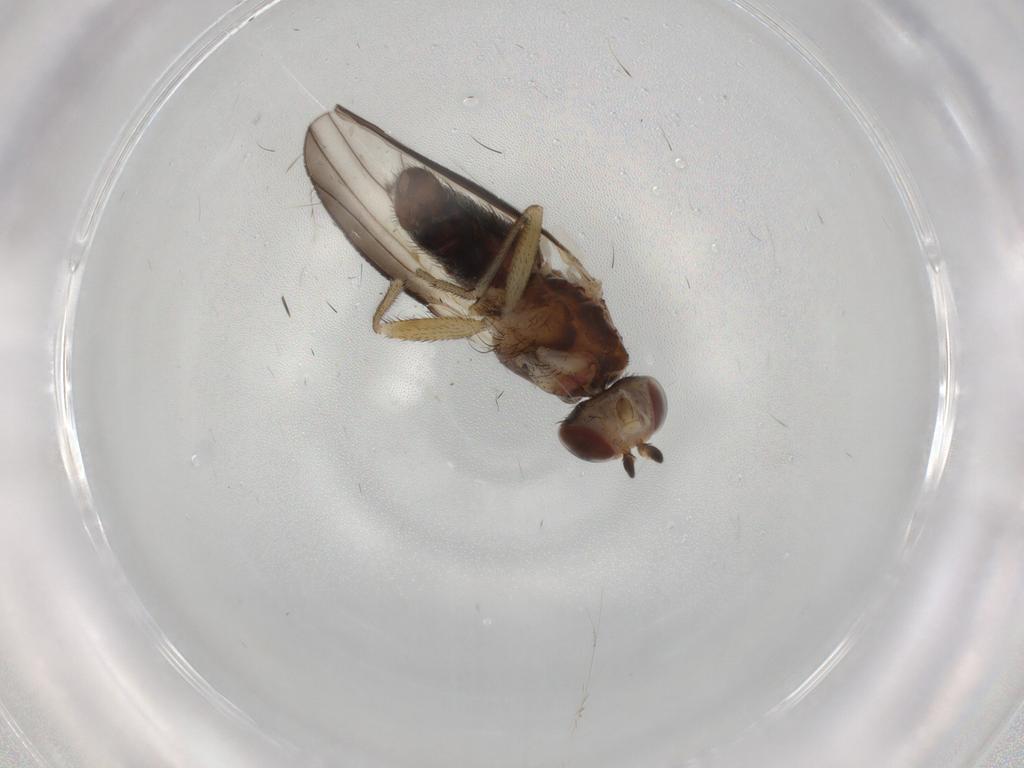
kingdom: Animalia
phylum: Arthropoda
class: Insecta
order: Diptera
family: Heleomyzidae
